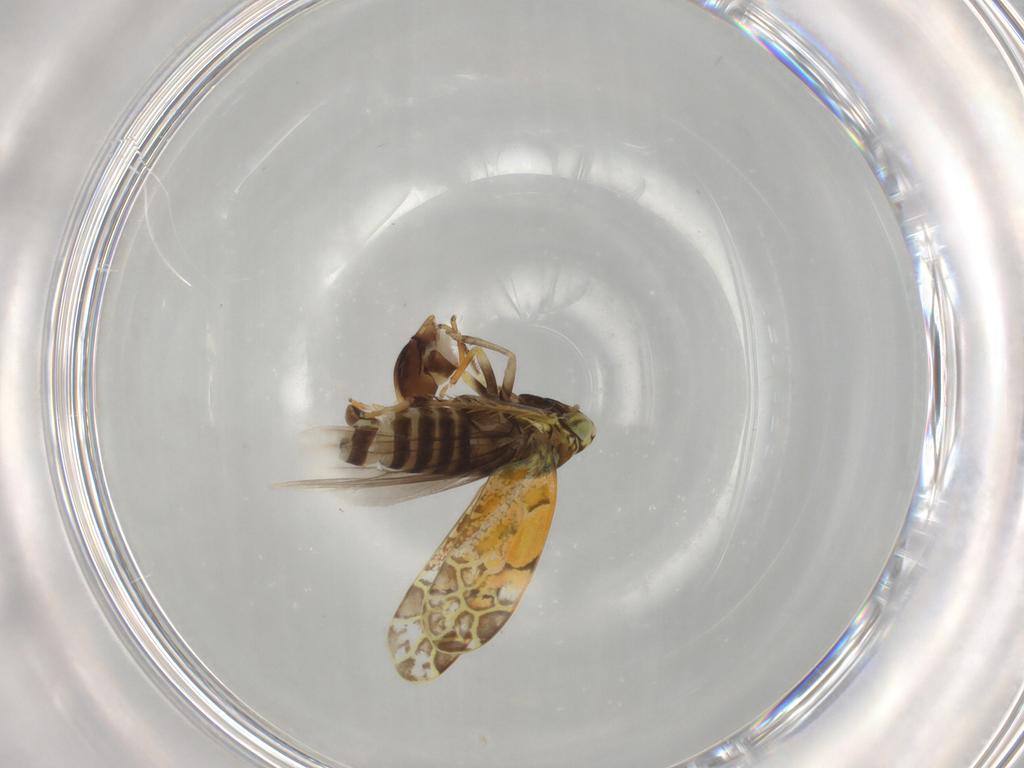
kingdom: Animalia
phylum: Arthropoda
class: Insecta
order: Hemiptera
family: Cicadellidae
